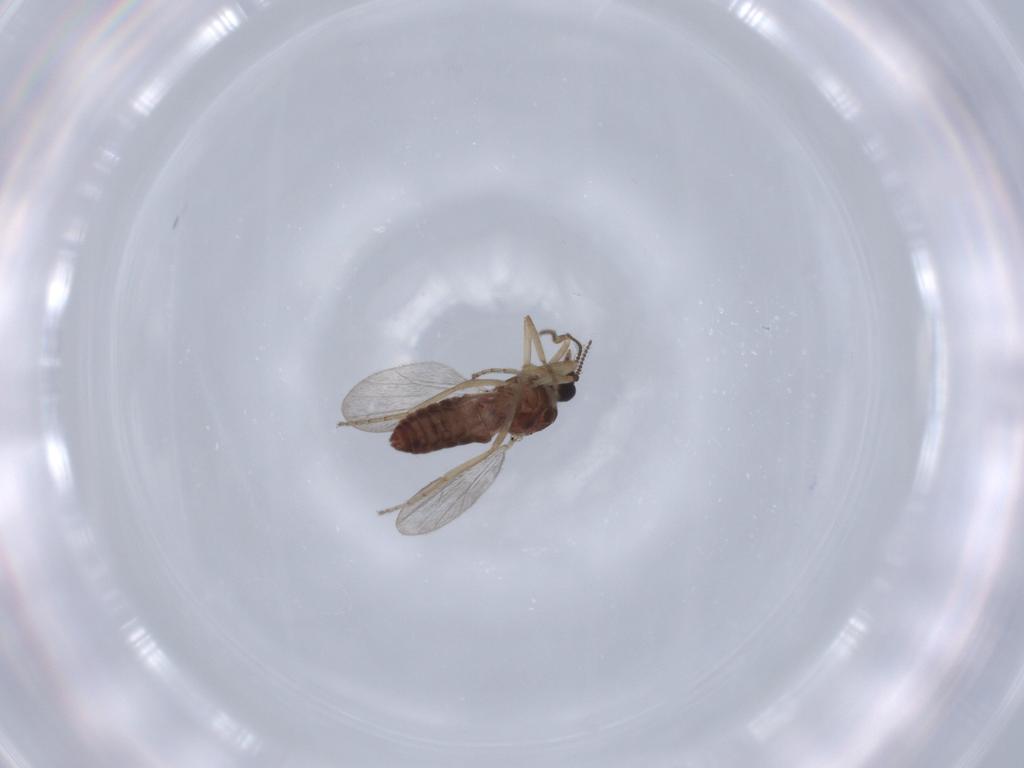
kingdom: Animalia
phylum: Arthropoda
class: Insecta
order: Diptera
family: Ceratopogonidae
